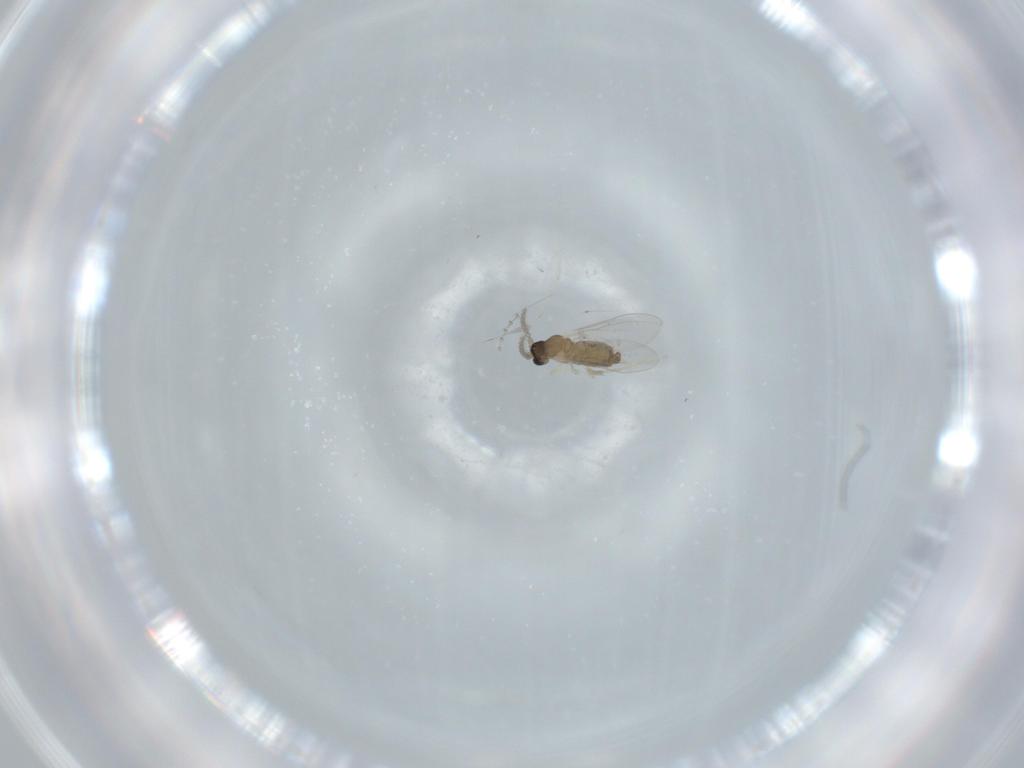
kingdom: Animalia
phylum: Arthropoda
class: Insecta
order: Diptera
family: Cecidomyiidae
